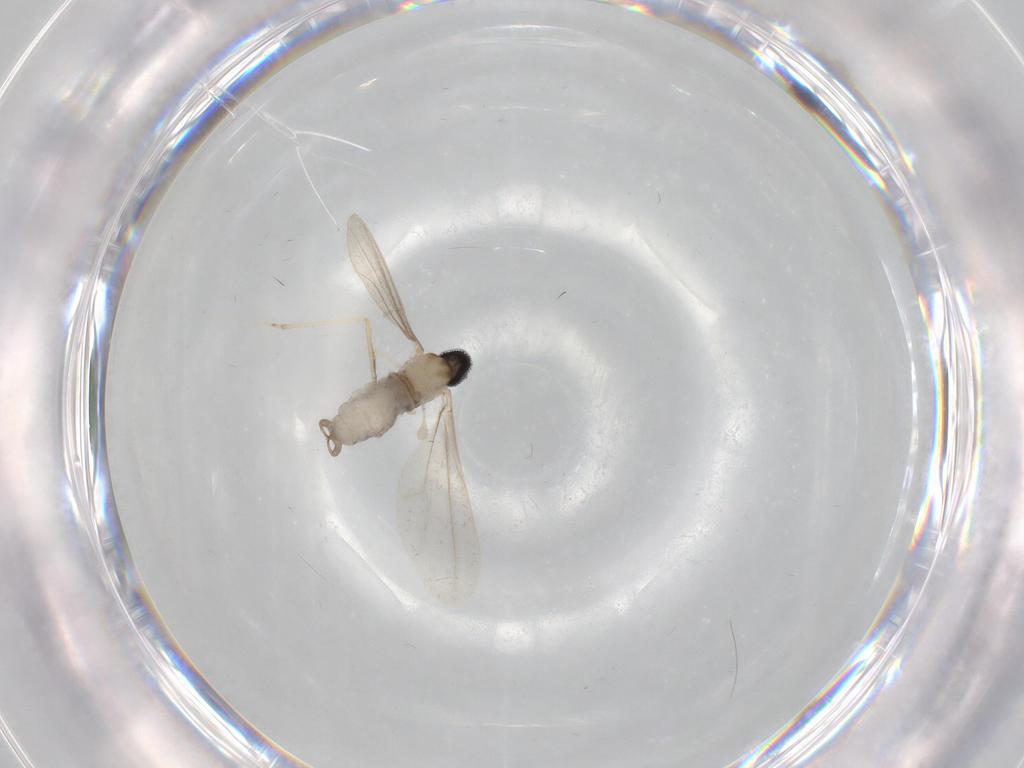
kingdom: Animalia
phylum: Arthropoda
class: Insecta
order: Diptera
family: Cecidomyiidae
